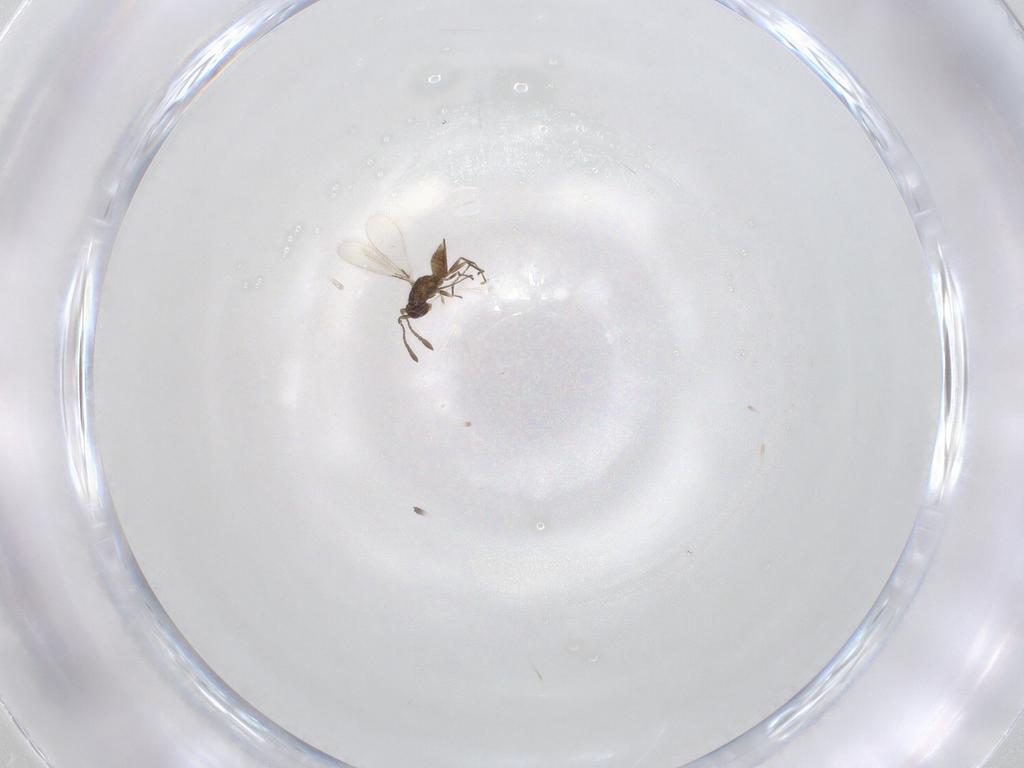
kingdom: Animalia
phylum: Arthropoda
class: Insecta
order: Hymenoptera
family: Mymaridae
